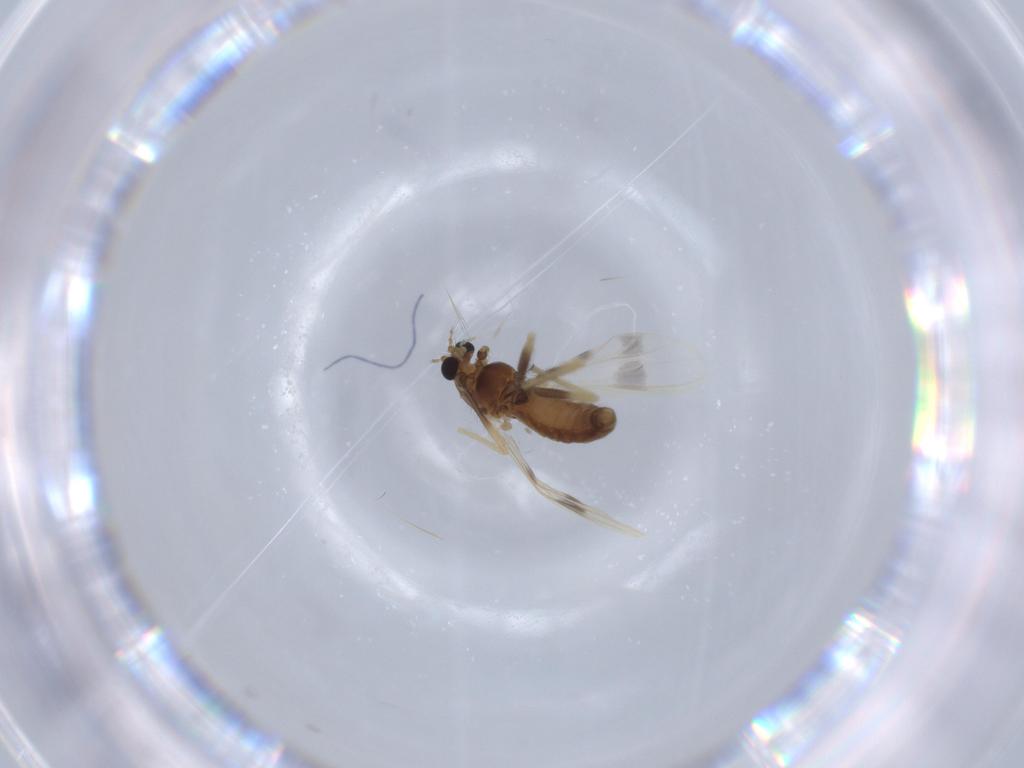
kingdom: Animalia
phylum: Arthropoda
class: Insecta
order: Diptera
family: Chironomidae
